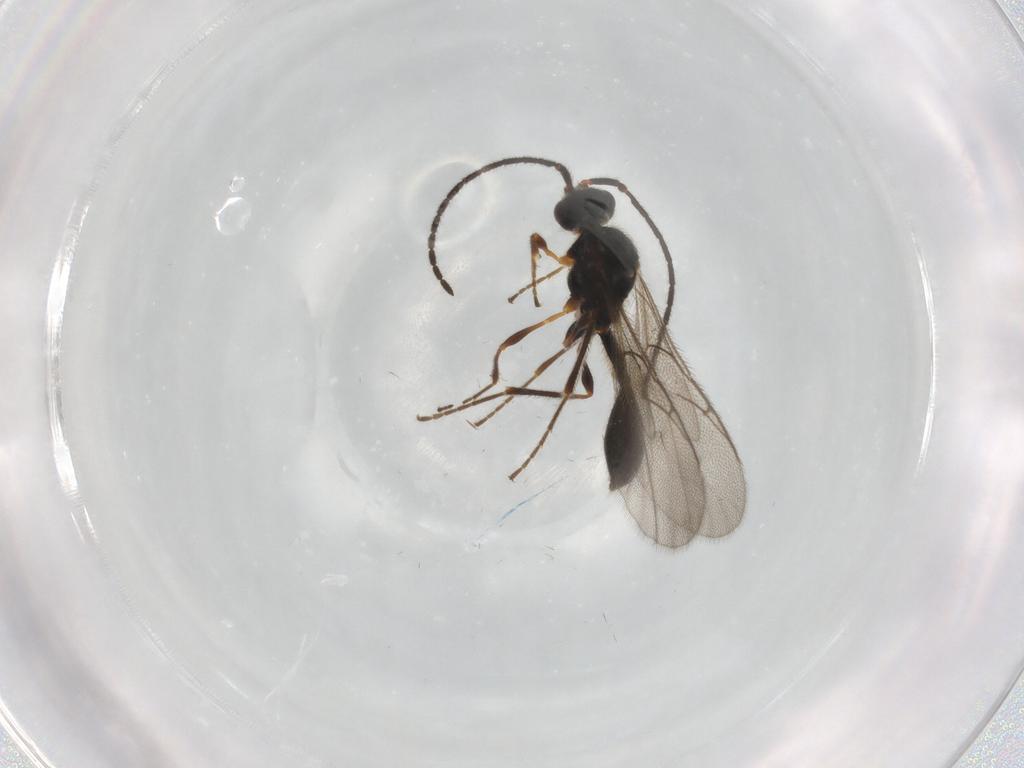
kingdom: Animalia
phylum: Arthropoda
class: Insecta
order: Hymenoptera
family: Diapriidae
